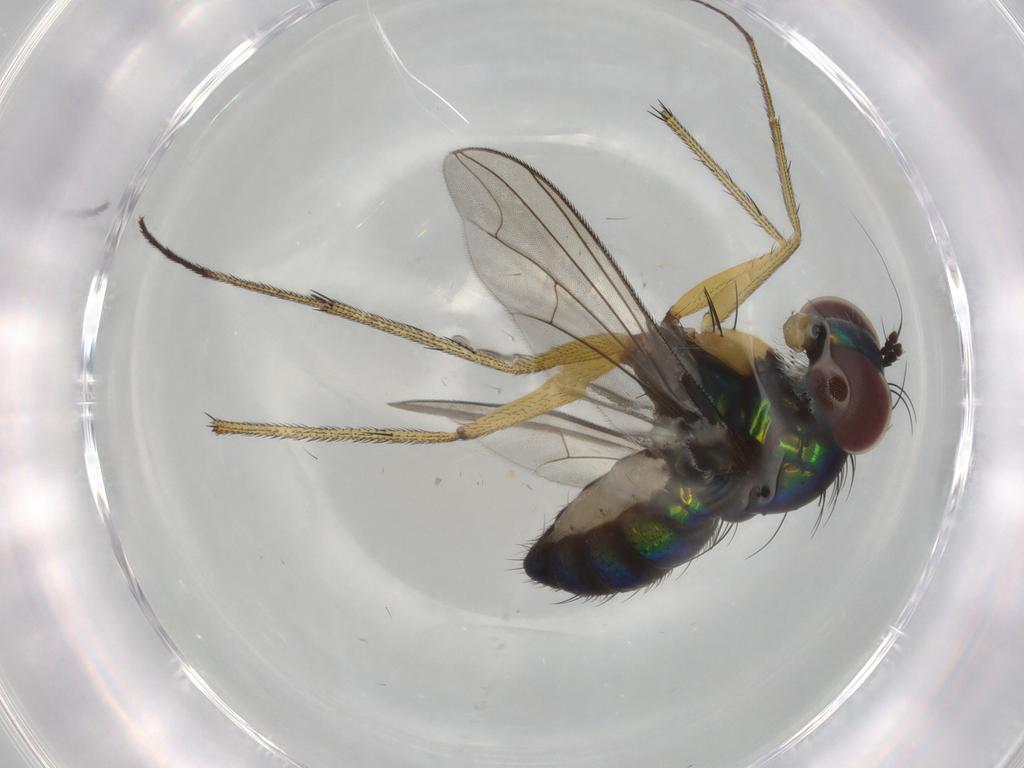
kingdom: Animalia
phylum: Arthropoda
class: Insecta
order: Diptera
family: Dolichopodidae
